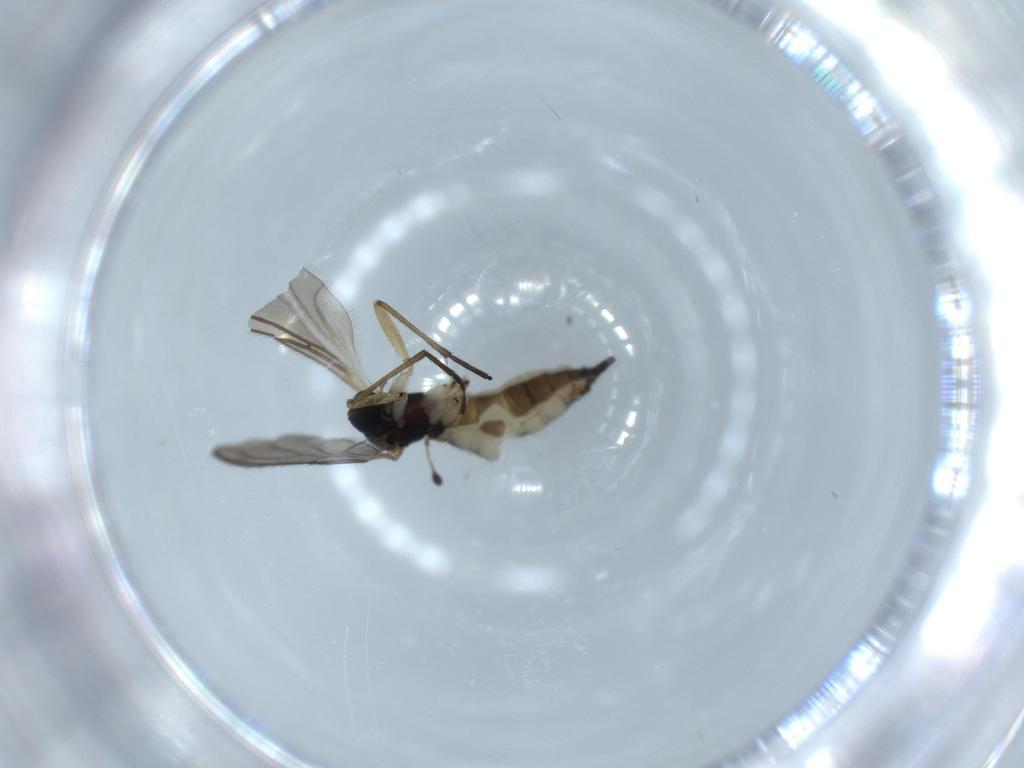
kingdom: Animalia
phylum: Arthropoda
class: Insecta
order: Diptera
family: Sciaridae
